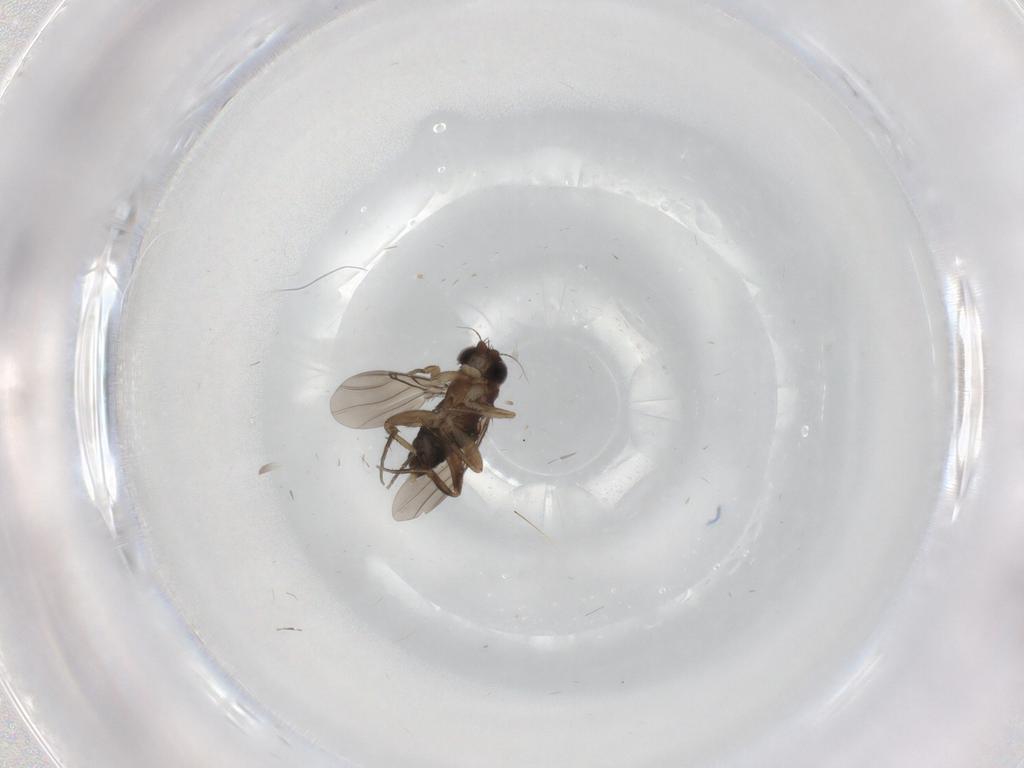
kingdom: Animalia
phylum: Arthropoda
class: Insecta
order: Diptera
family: Phoridae
